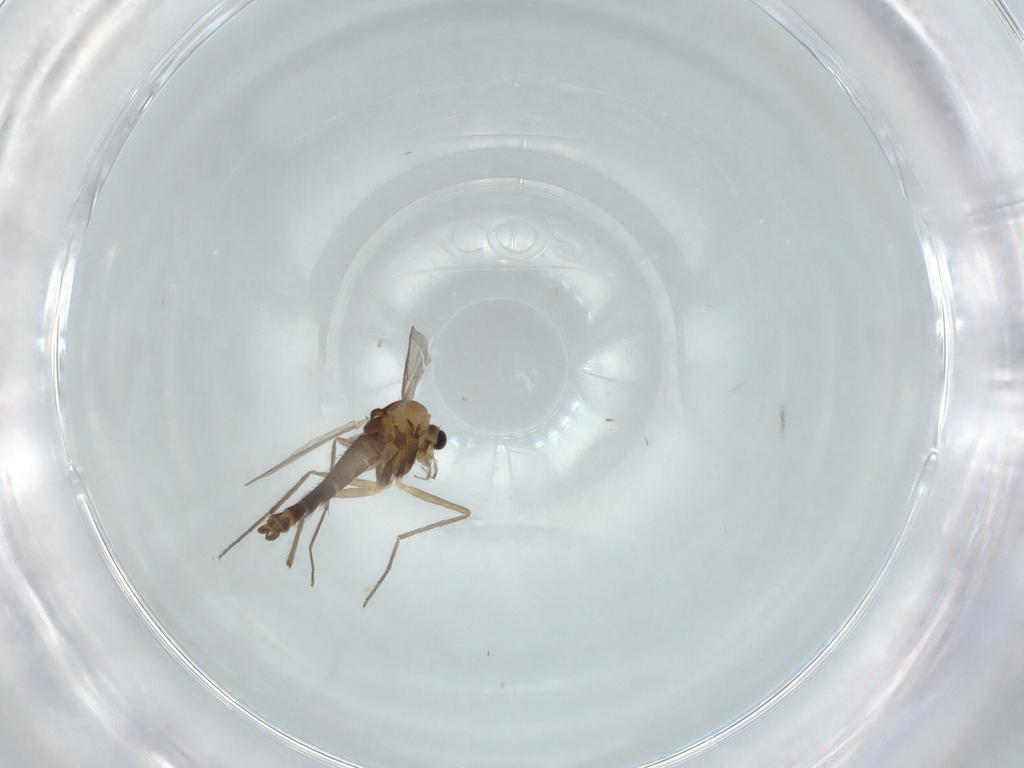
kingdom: Animalia
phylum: Arthropoda
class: Insecta
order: Diptera
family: Chironomidae
